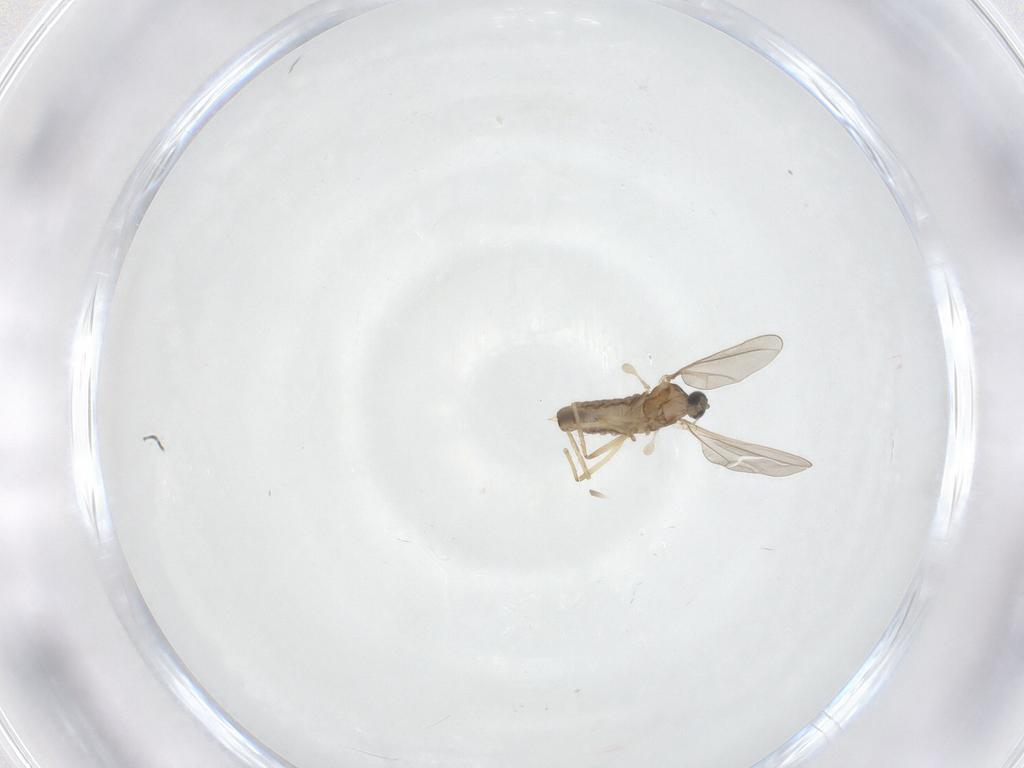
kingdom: Animalia
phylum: Arthropoda
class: Insecta
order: Diptera
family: Cecidomyiidae
